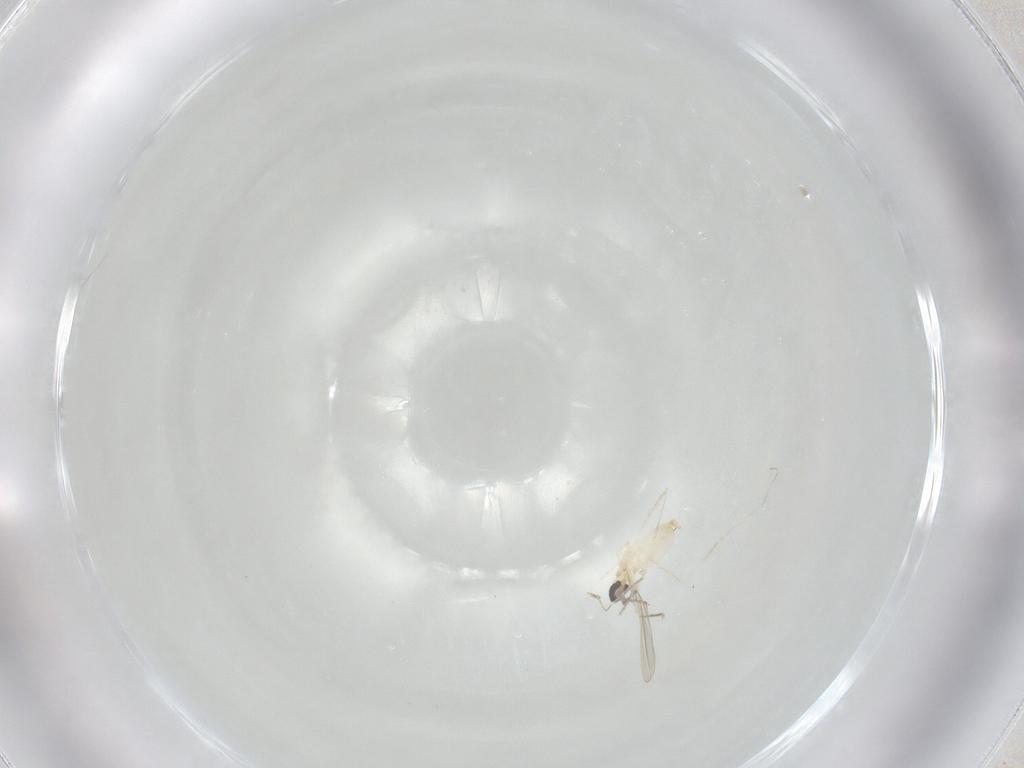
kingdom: Animalia
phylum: Arthropoda
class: Insecta
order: Diptera
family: Cecidomyiidae
